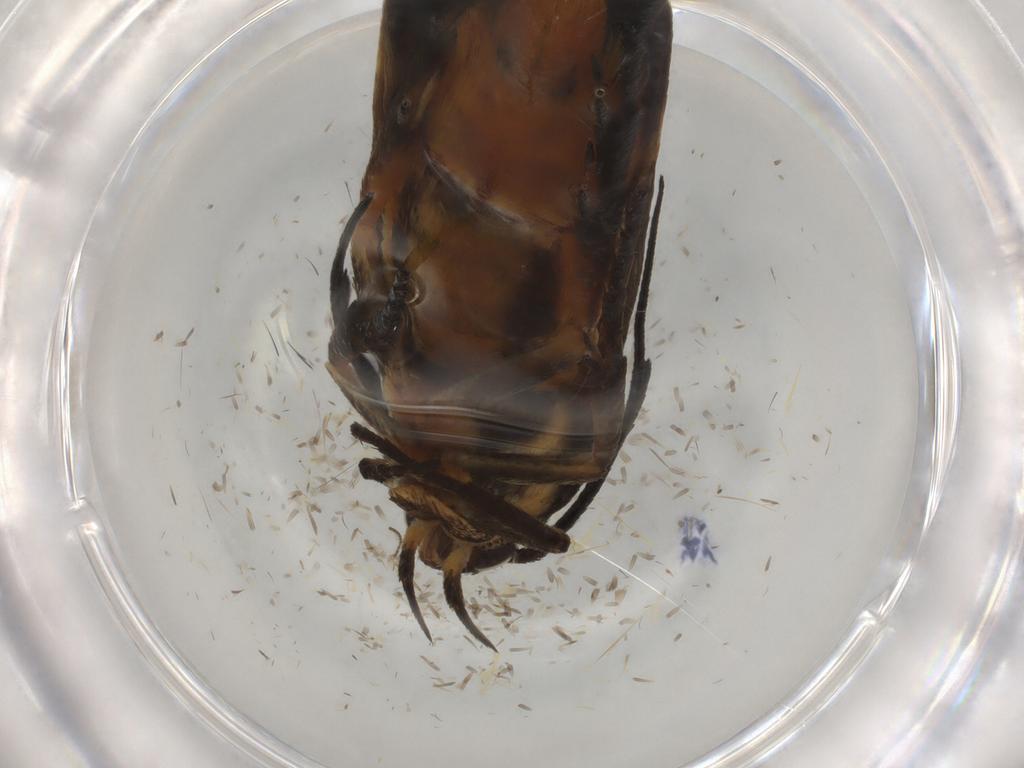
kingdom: Animalia
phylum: Arthropoda
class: Insecta
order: Lepidoptera
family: Scythrididae
